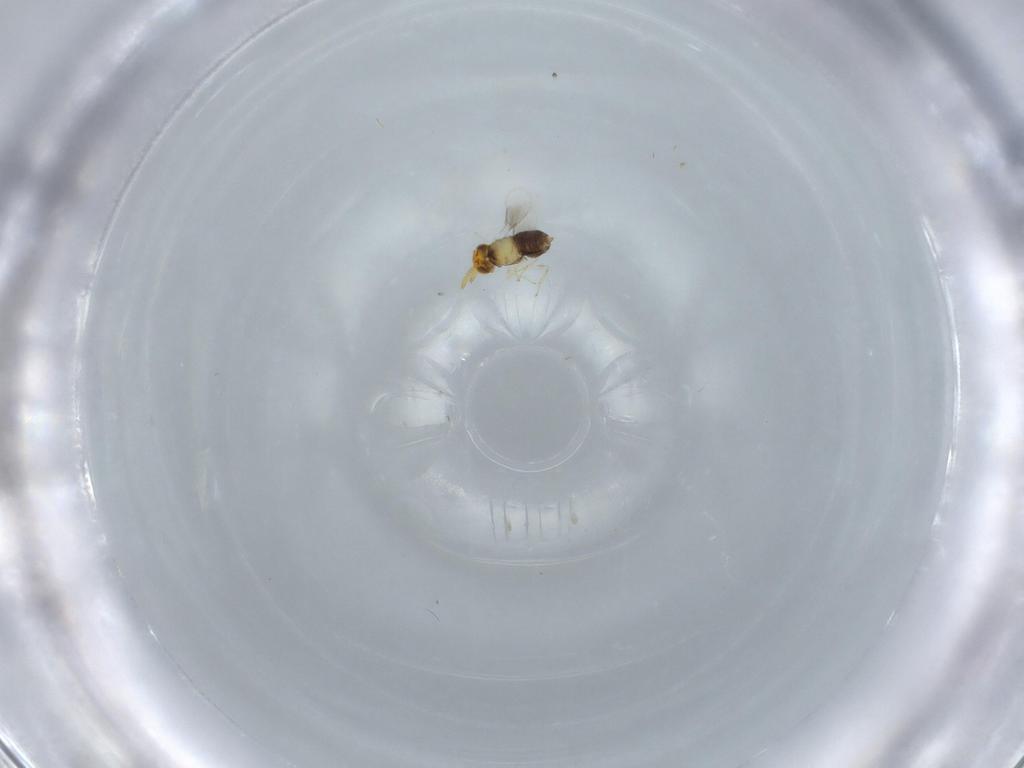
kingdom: Animalia
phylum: Arthropoda
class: Insecta
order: Hymenoptera
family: Aphelinidae
